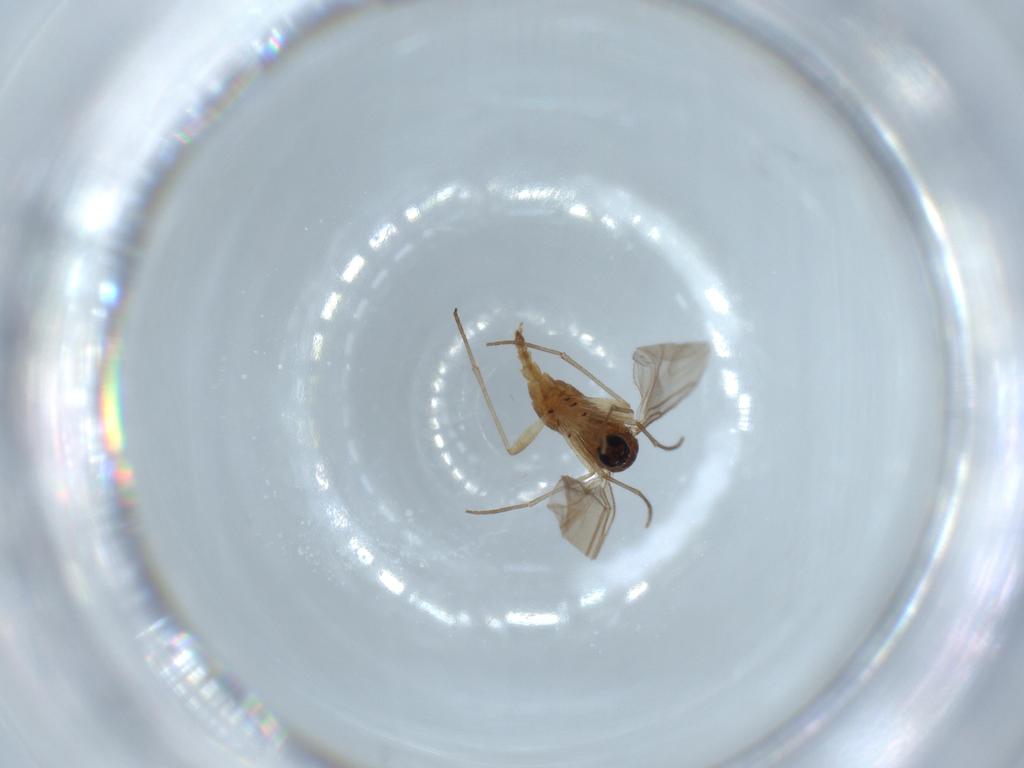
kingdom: Animalia
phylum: Arthropoda
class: Insecta
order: Diptera
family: Sciaridae
